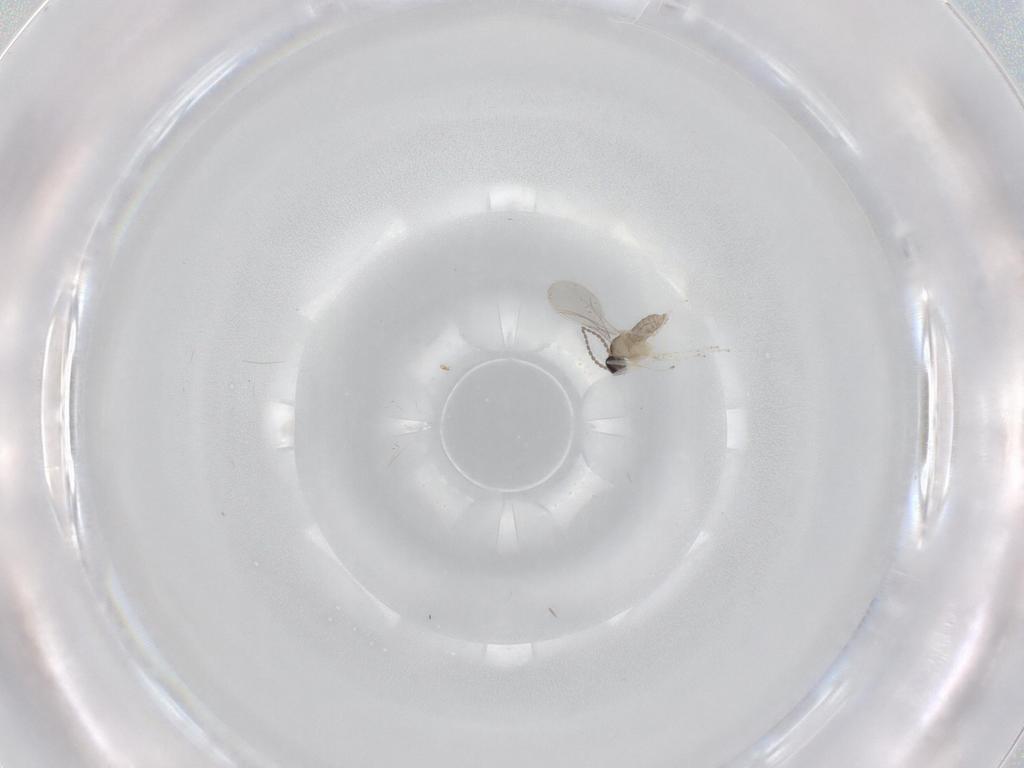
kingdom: Animalia
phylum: Arthropoda
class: Insecta
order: Diptera
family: Cecidomyiidae
